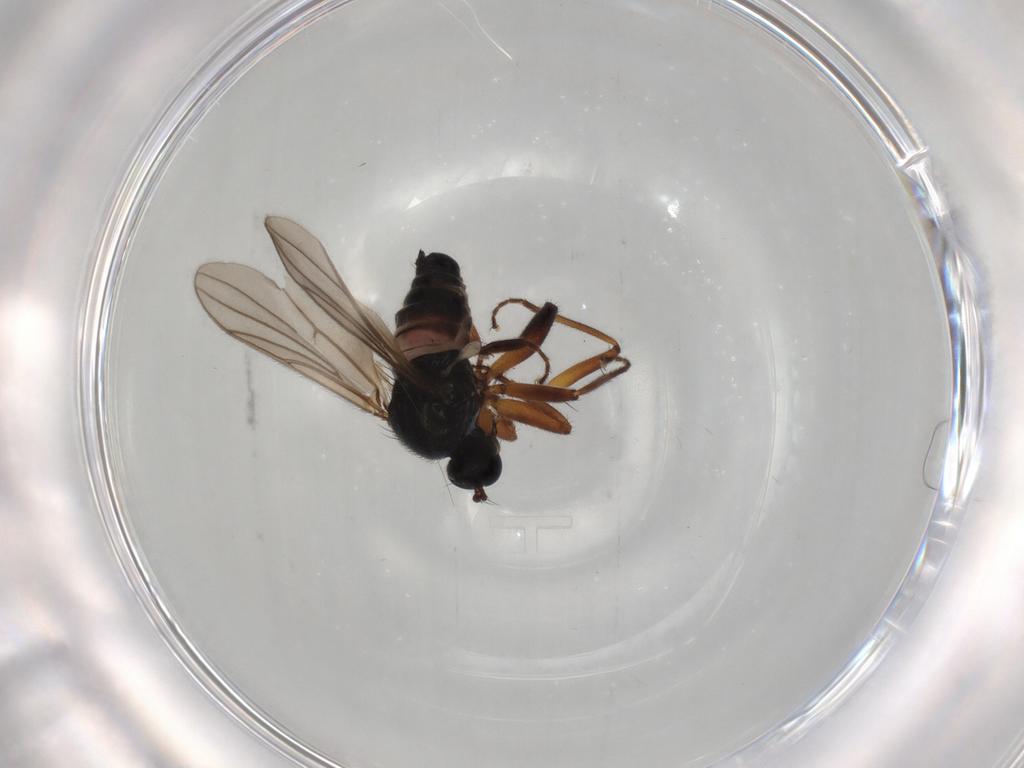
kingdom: Animalia
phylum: Arthropoda
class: Insecta
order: Diptera
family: Hybotidae
